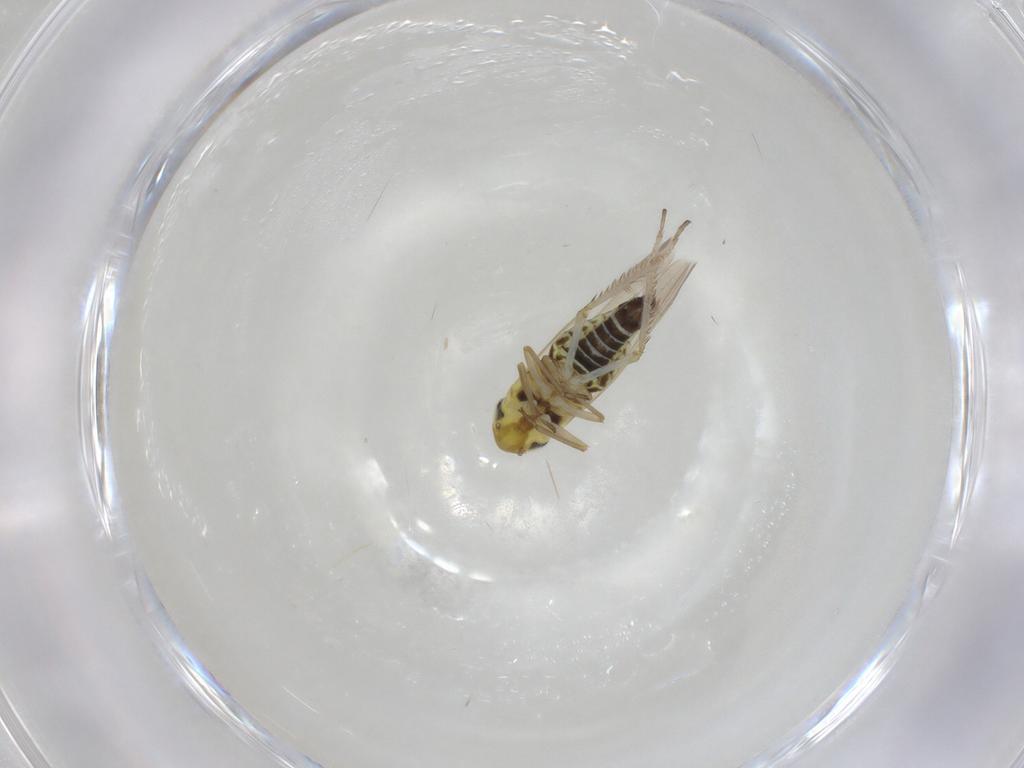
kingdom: Animalia
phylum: Arthropoda
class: Insecta
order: Hemiptera
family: Cicadellidae
